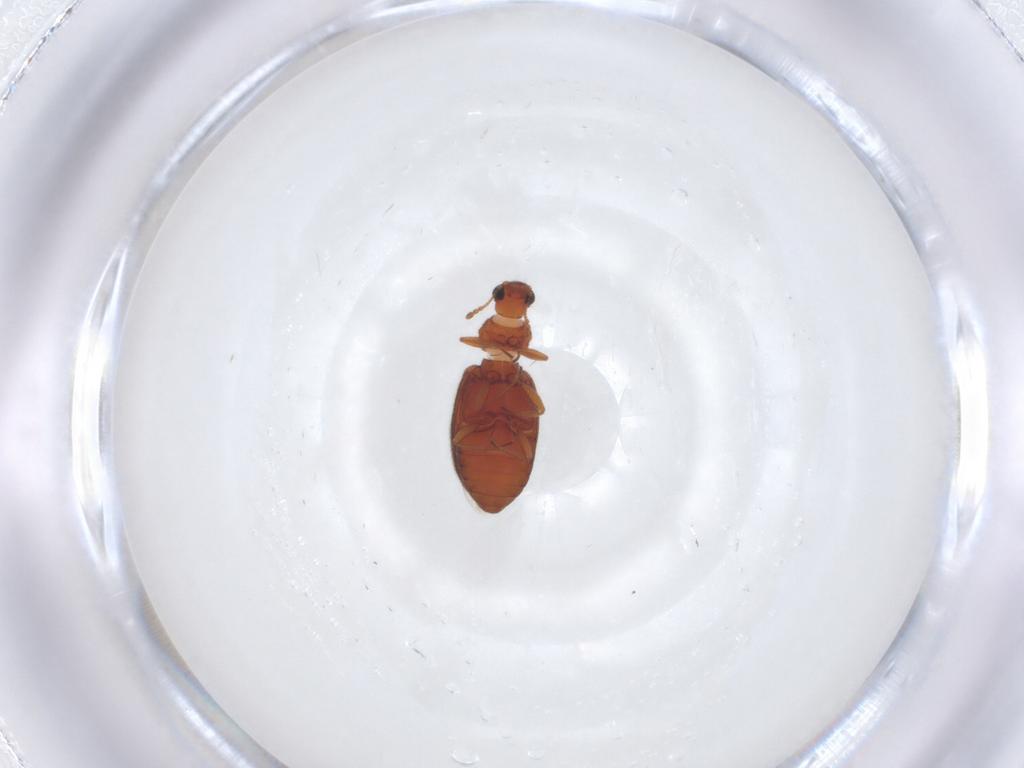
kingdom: Animalia
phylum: Arthropoda
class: Insecta
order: Coleoptera
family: Latridiidae
